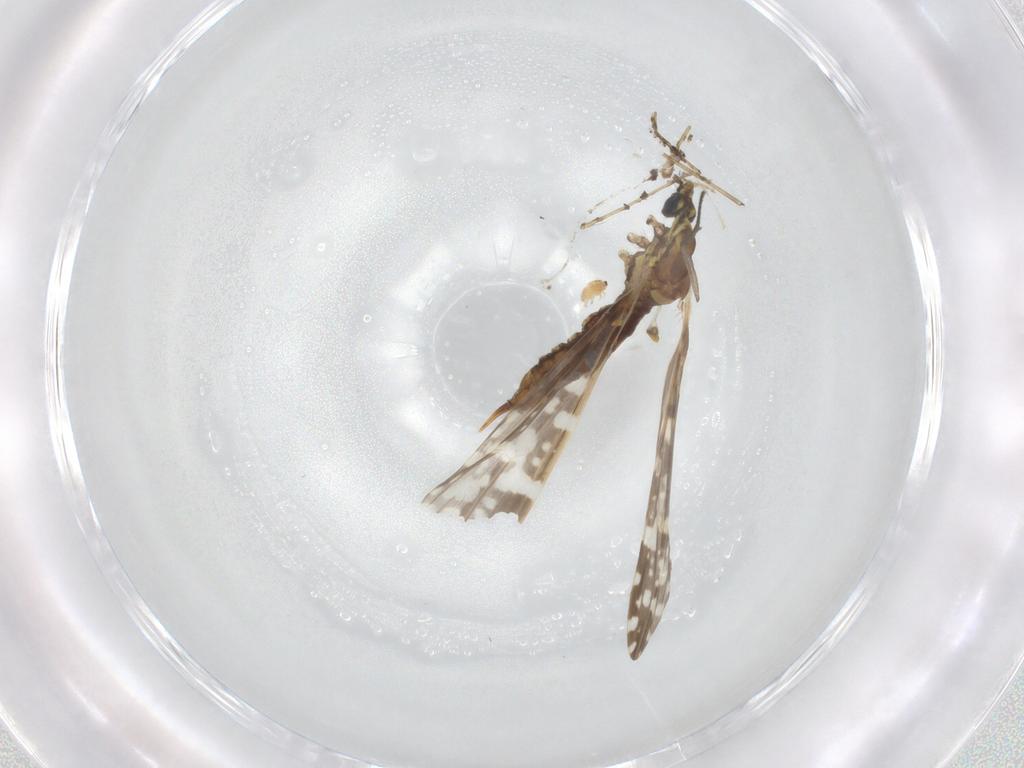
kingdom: Animalia
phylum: Arthropoda
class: Insecta
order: Diptera
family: Limoniidae
